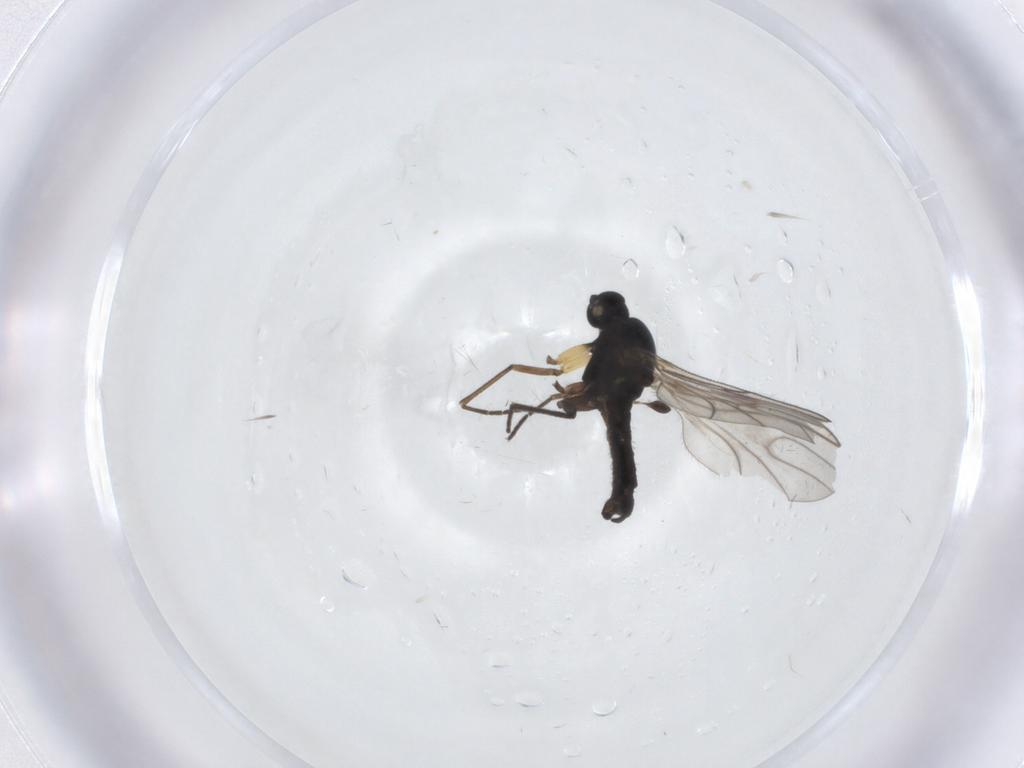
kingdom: Animalia
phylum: Arthropoda
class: Insecta
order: Diptera
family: Sciaridae
